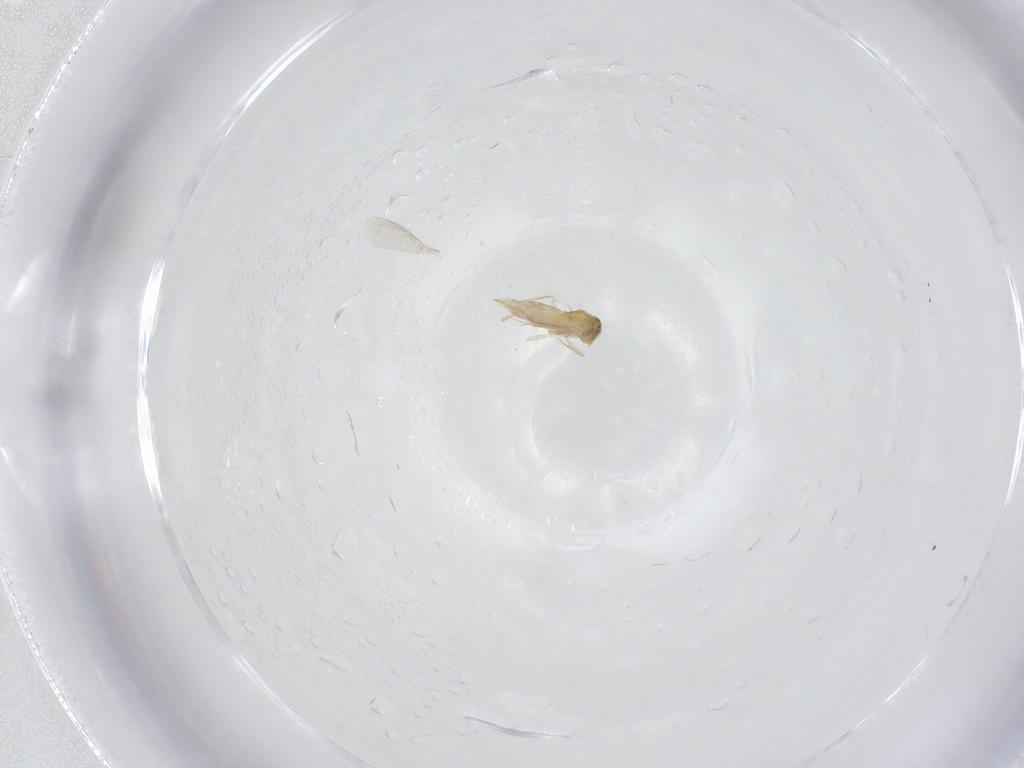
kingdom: Animalia
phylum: Arthropoda
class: Insecta
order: Hymenoptera
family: Aphelinidae
